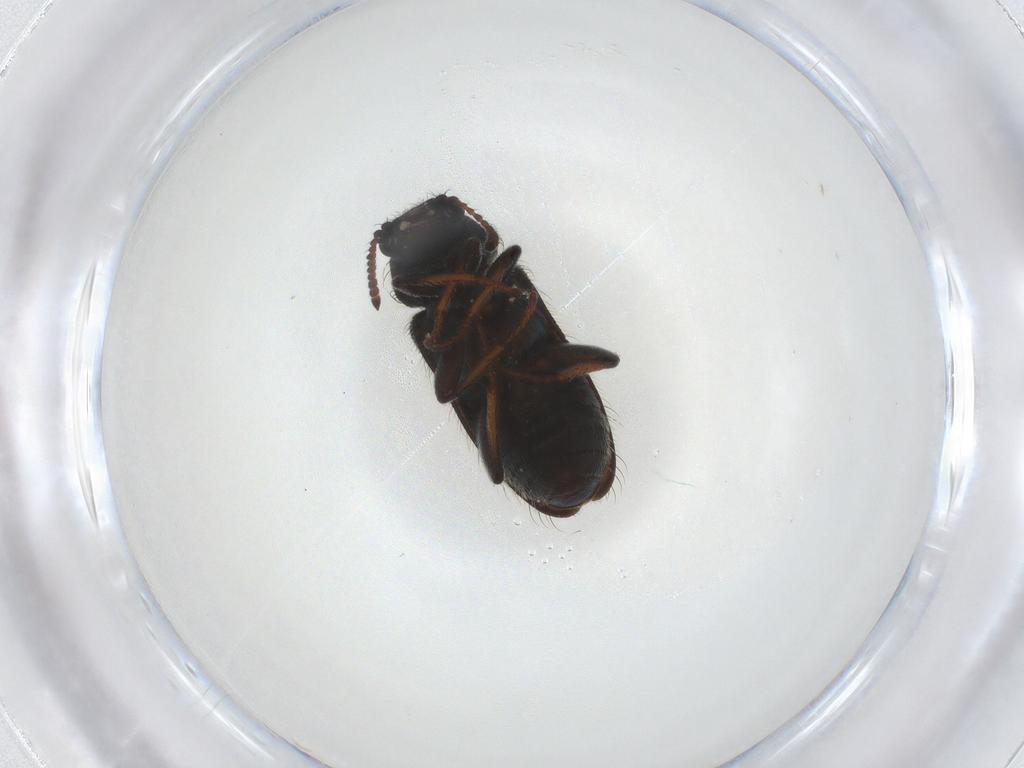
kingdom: Animalia
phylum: Arthropoda
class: Insecta
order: Coleoptera
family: Melyridae
